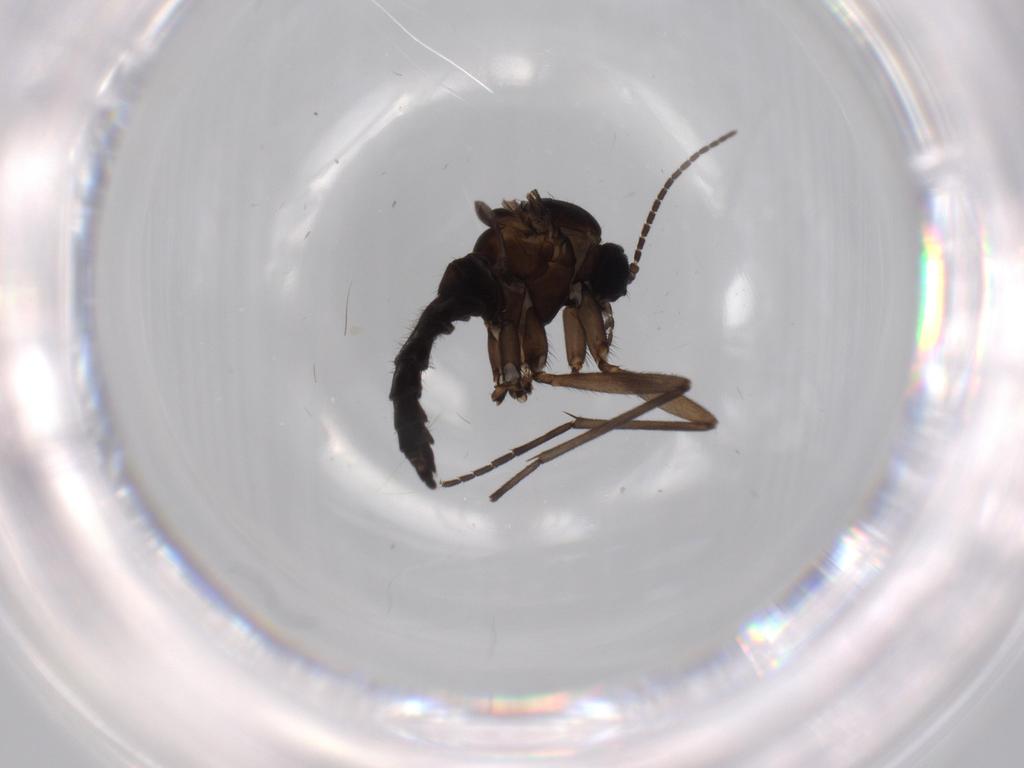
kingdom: Animalia
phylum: Arthropoda
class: Insecta
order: Diptera
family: Sciaridae
